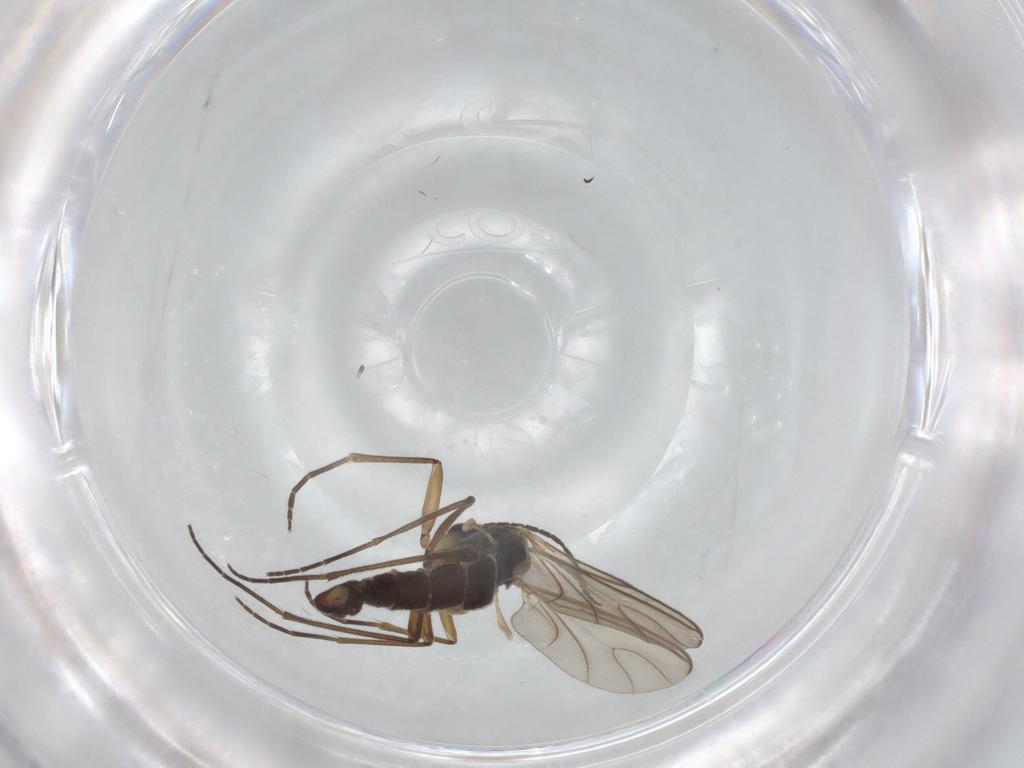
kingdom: Animalia
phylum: Arthropoda
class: Insecta
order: Diptera
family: Sciaridae
